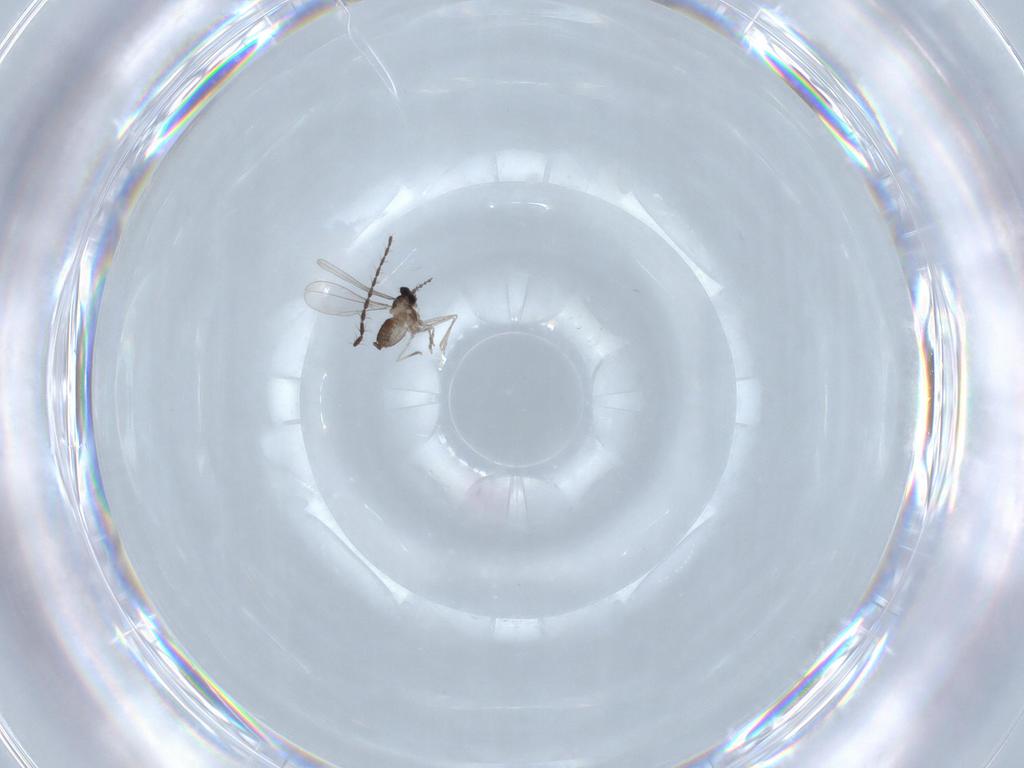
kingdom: Animalia
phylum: Arthropoda
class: Insecta
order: Diptera
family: Cecidomyiidae
